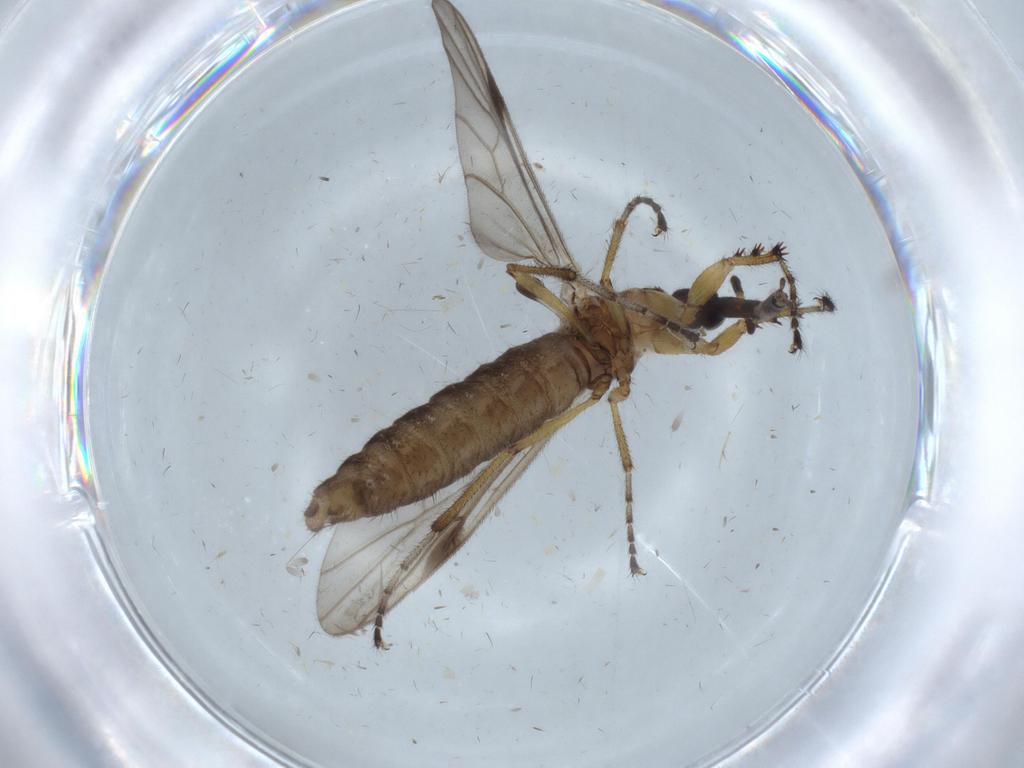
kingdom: Animalia
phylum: Arthropoda
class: Insecta
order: Diptera
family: Bibionidae
